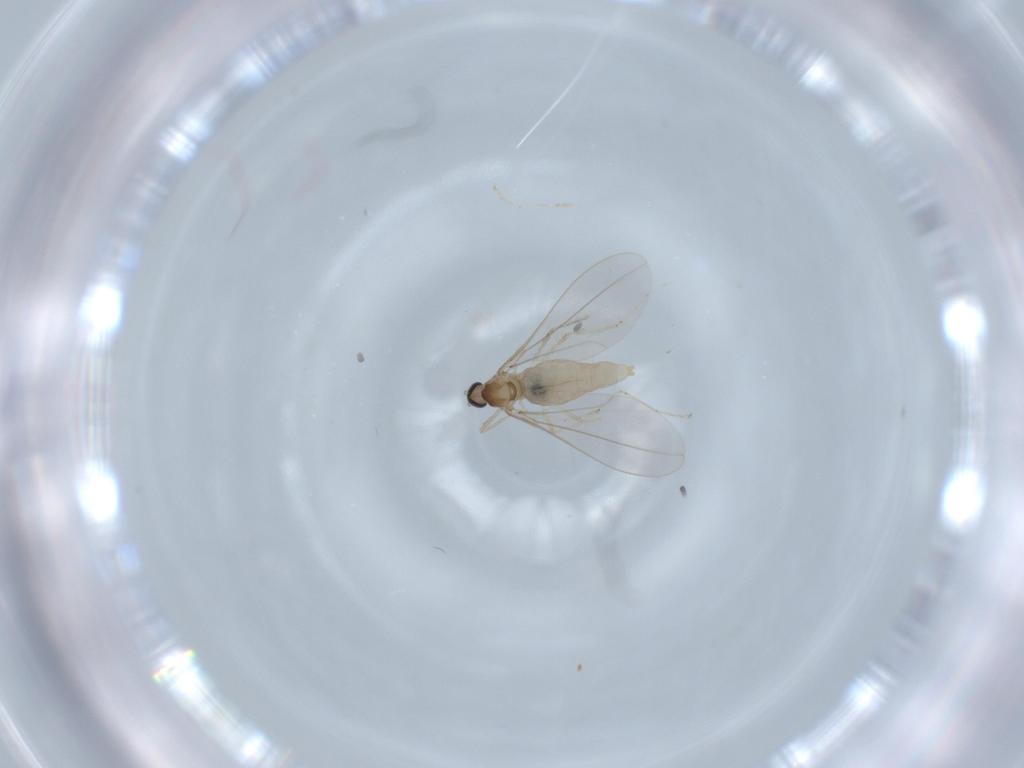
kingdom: Animalia
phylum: Arthropoda
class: Insecta
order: Diptera
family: Cecidomyiidae
